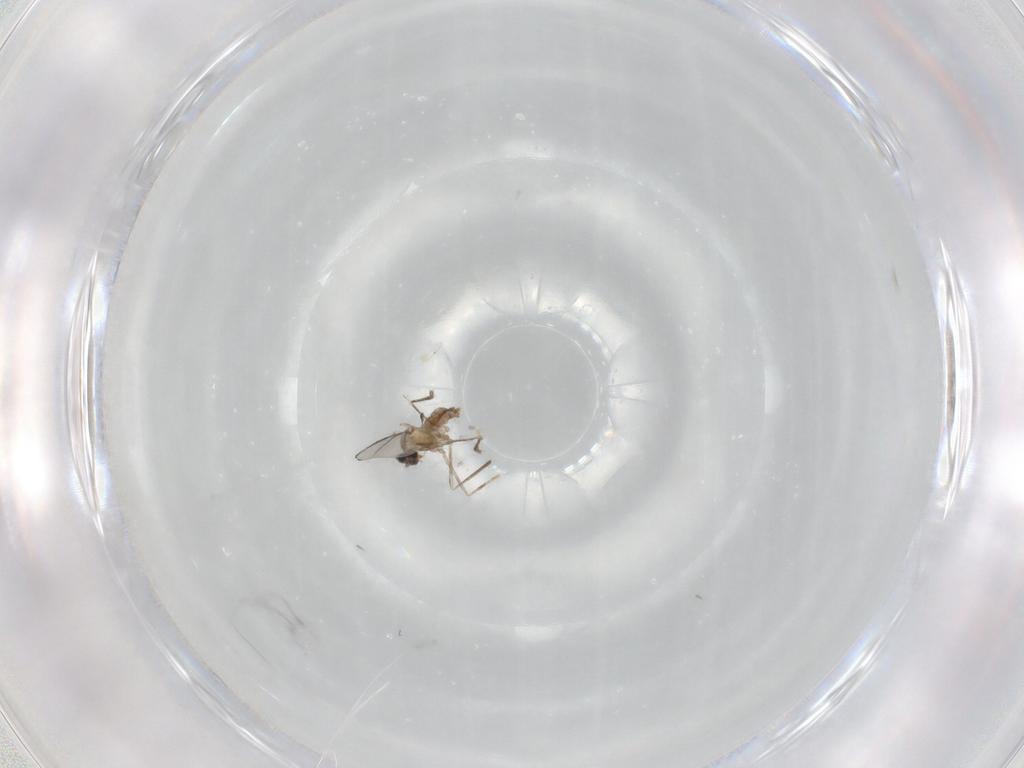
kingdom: Animalia
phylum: Arthropoda
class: Insecta
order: Diptera
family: Cecidomyiidae
